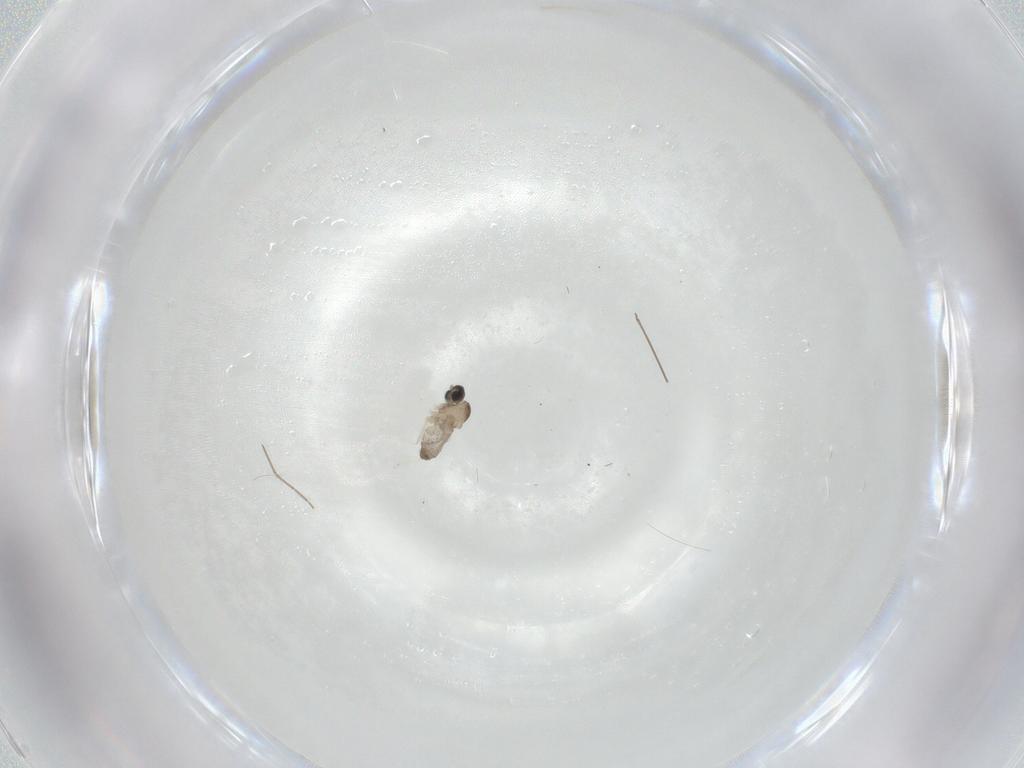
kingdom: Animalia
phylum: Arthropoda
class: Insecta
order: Diptera
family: Cecidomyiidae
